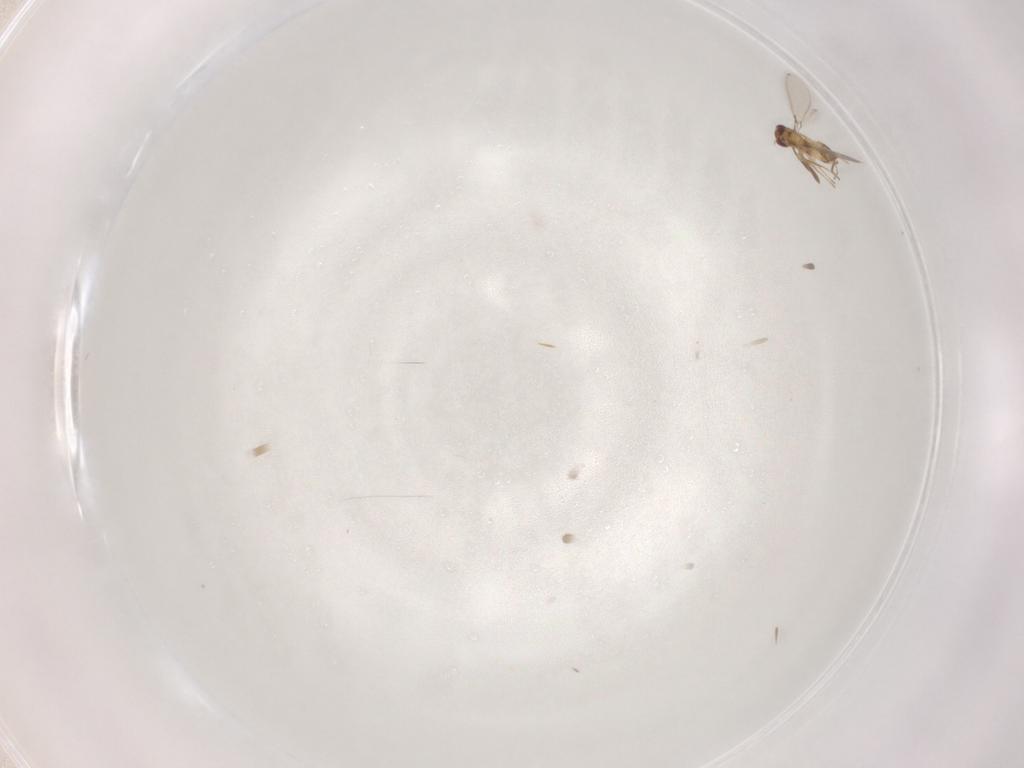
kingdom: Animalia
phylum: Arthropoda
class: Insecta
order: Hymenoptera
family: Mymaridae
